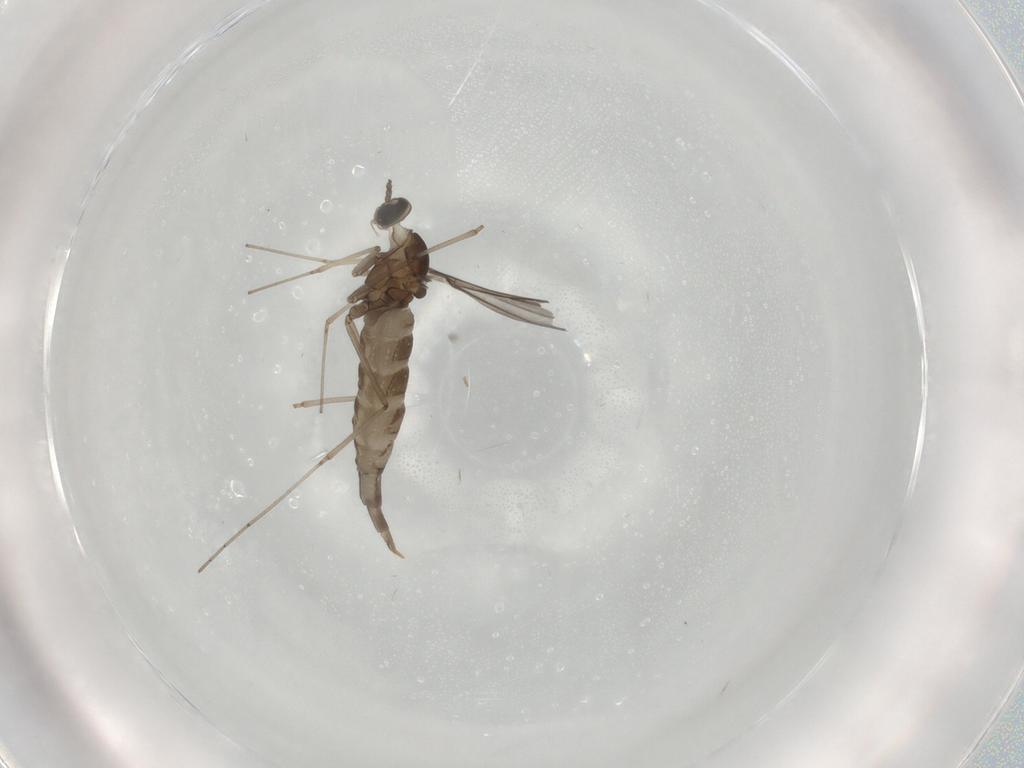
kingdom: Animalia
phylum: Arthropoda
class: Insecta
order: Diptera
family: Cecidomyiidae
